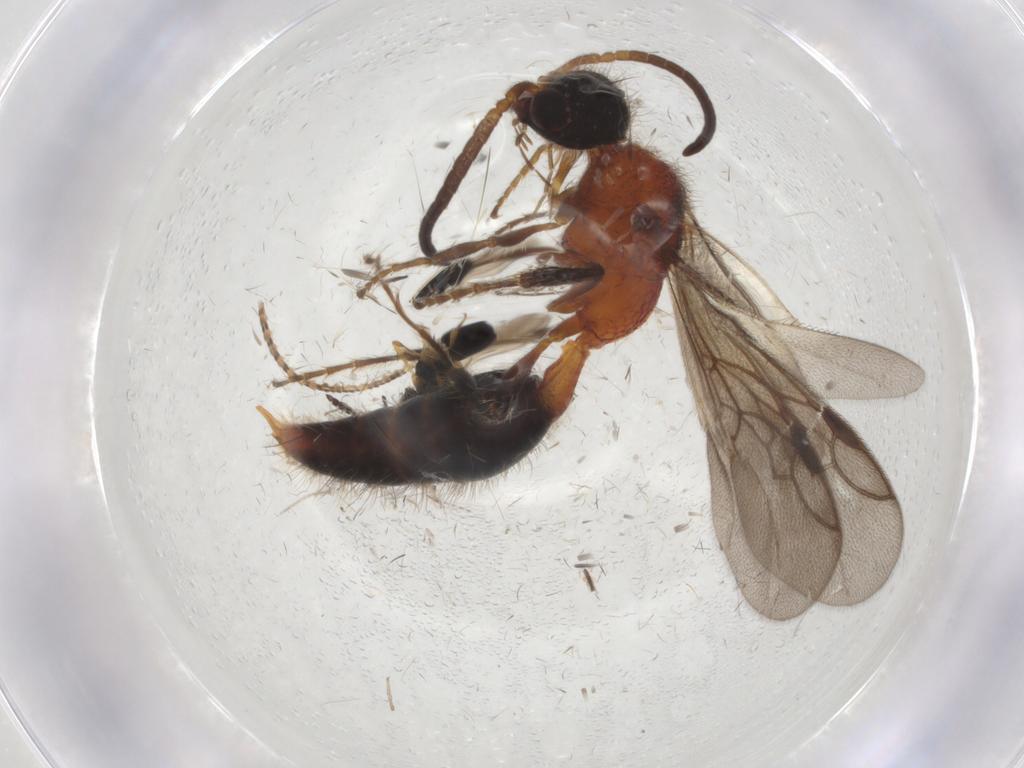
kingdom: Animalia
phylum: Arthropoda
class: Insecta
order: Hymenoptera
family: Mutillidae
